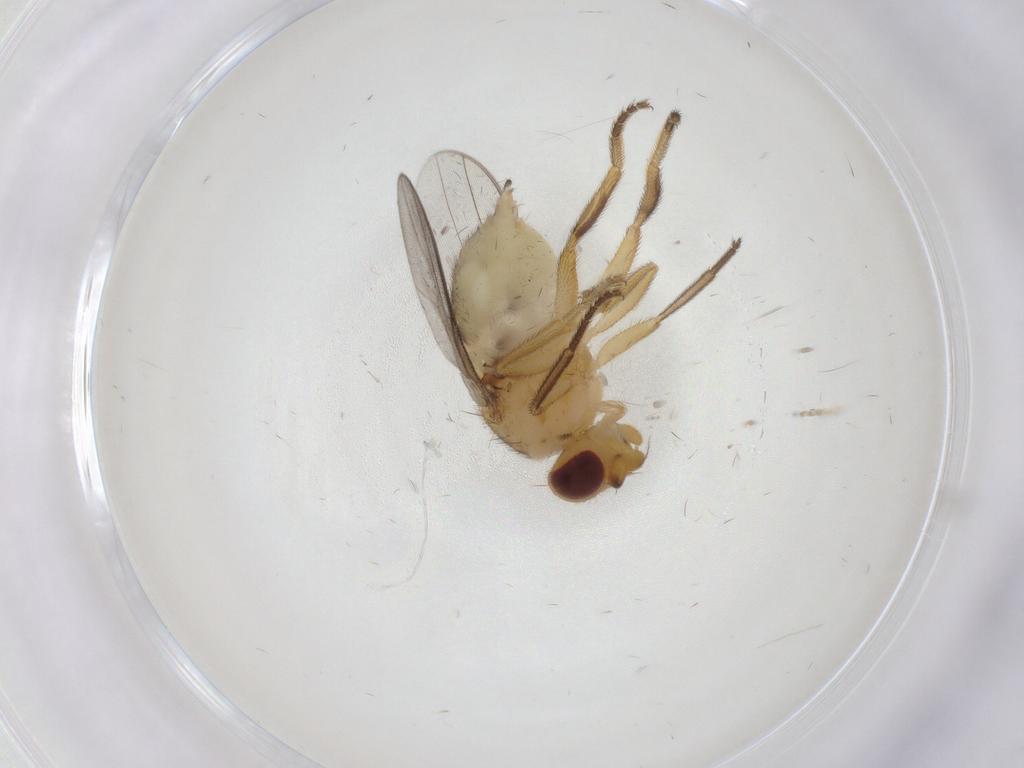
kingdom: Animalia
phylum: Arthropoda
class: Insecta
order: Diptera
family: Chloropidae
